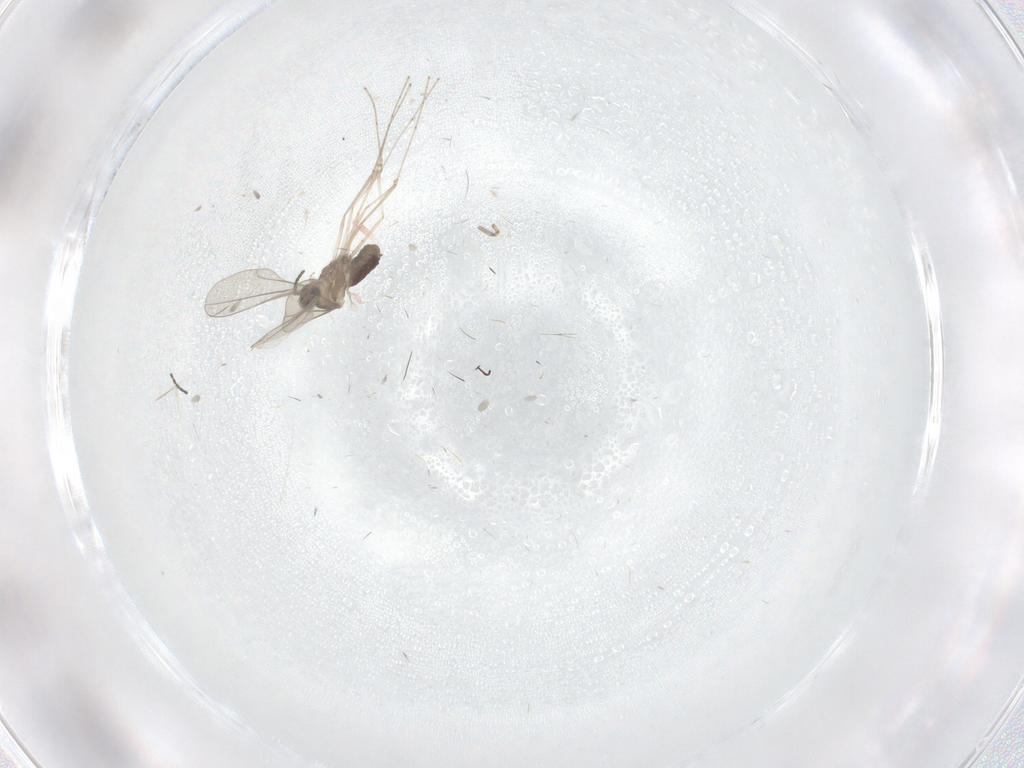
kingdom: Animalia
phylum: Arthropoda
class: Insecta
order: Diptera
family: Cecidomyiidae
